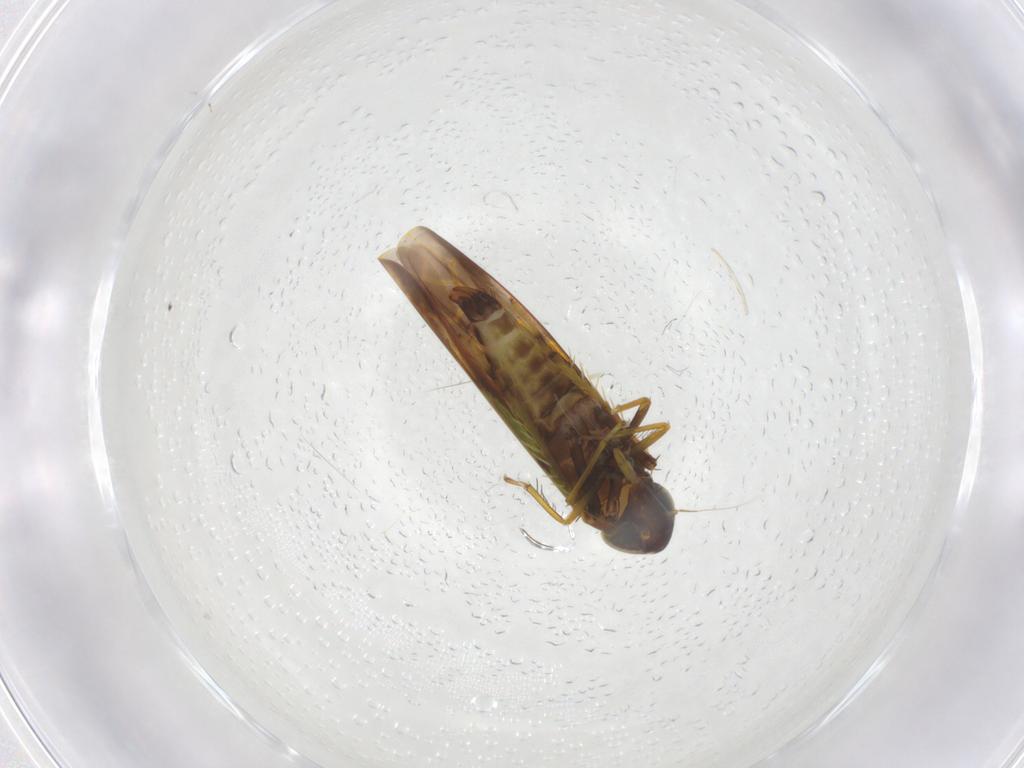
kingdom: Animalia
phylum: Arthropoda
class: Insecta
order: Hemiptera
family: Cicadellidae
